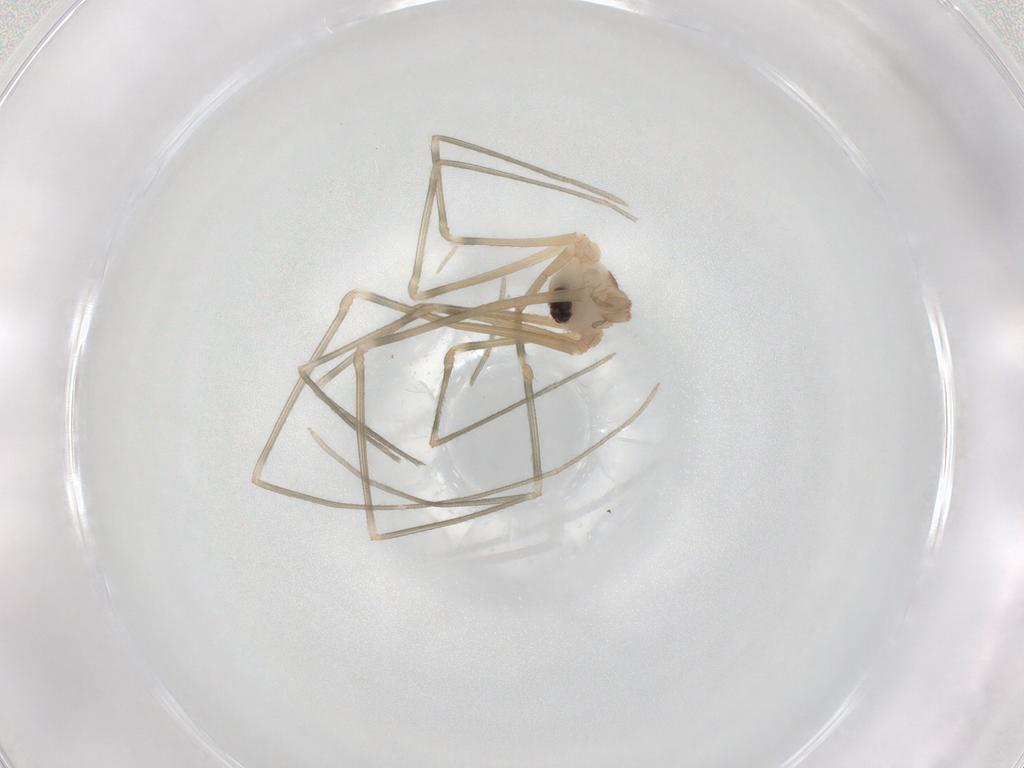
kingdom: Animalia
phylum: Arthropoda
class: Arachnida
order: Araneae
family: Pholcidae
